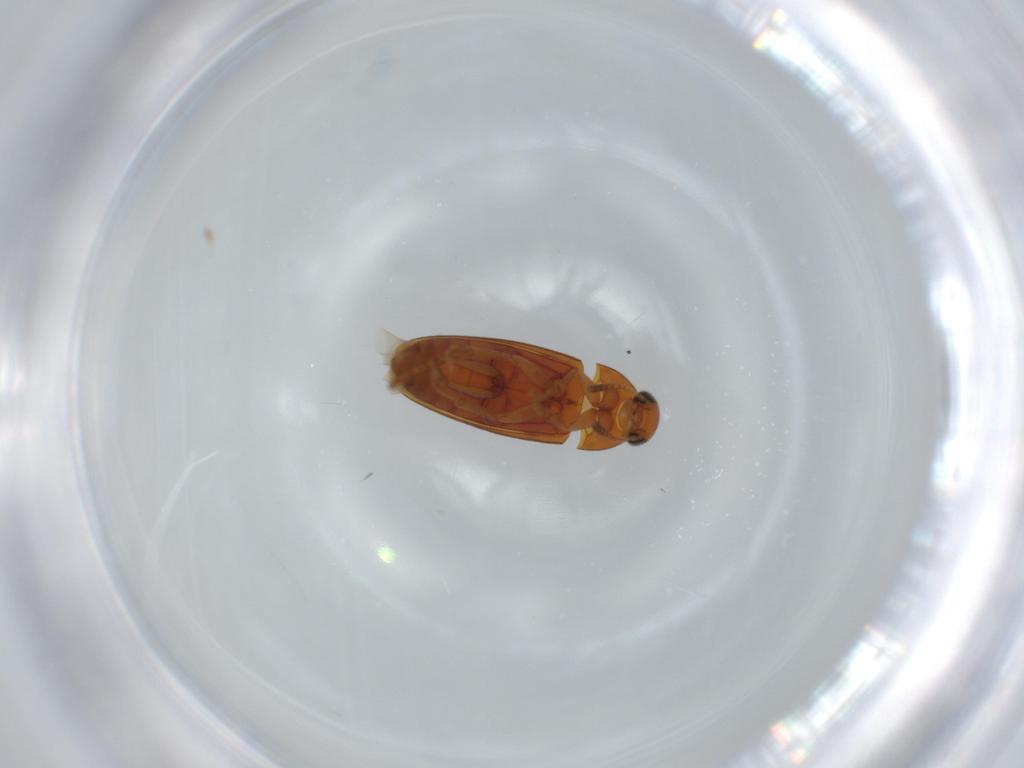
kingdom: Animalia
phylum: Arthropoda
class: Insecta
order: Coleoptera
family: Scraptiidae
